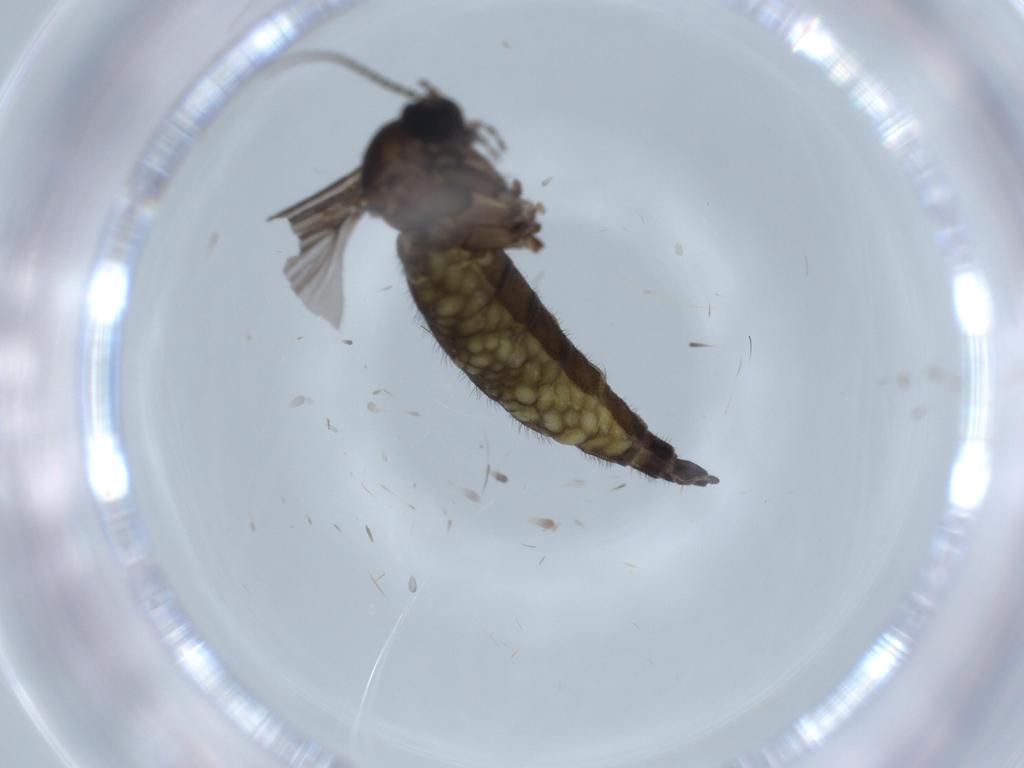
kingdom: Animalia
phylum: Arthropoda
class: Insecta
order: Diptera
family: Sciaridae
